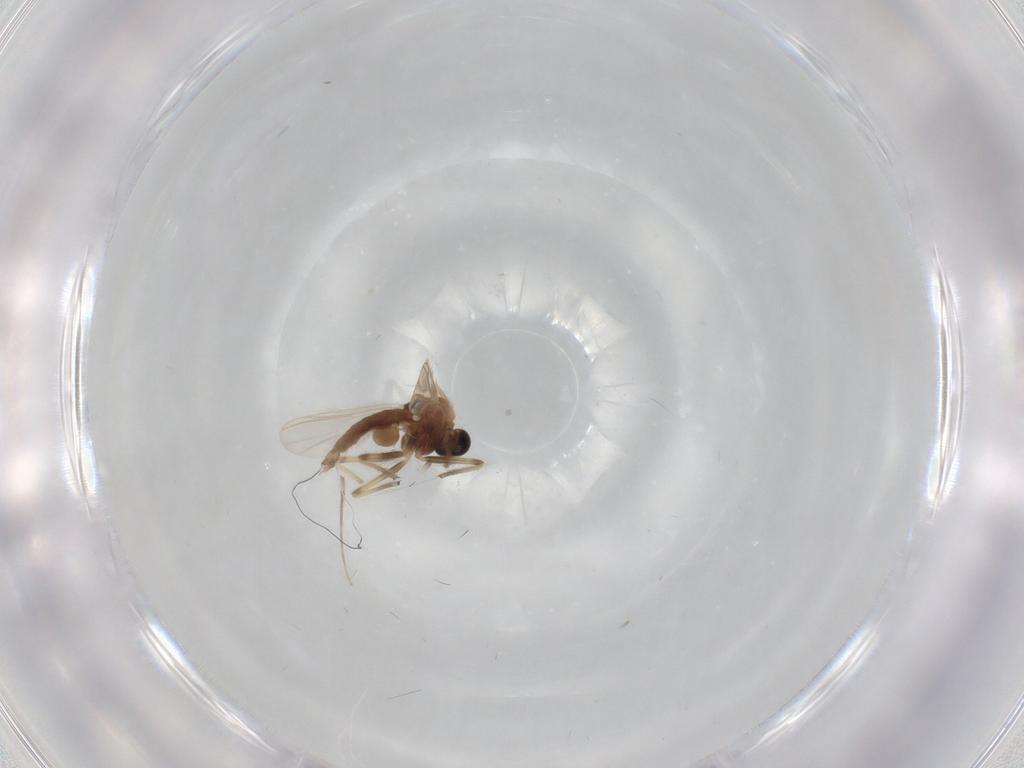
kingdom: Animalia
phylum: Arthropoda
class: Insecta
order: Diptera
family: Chironomidae
